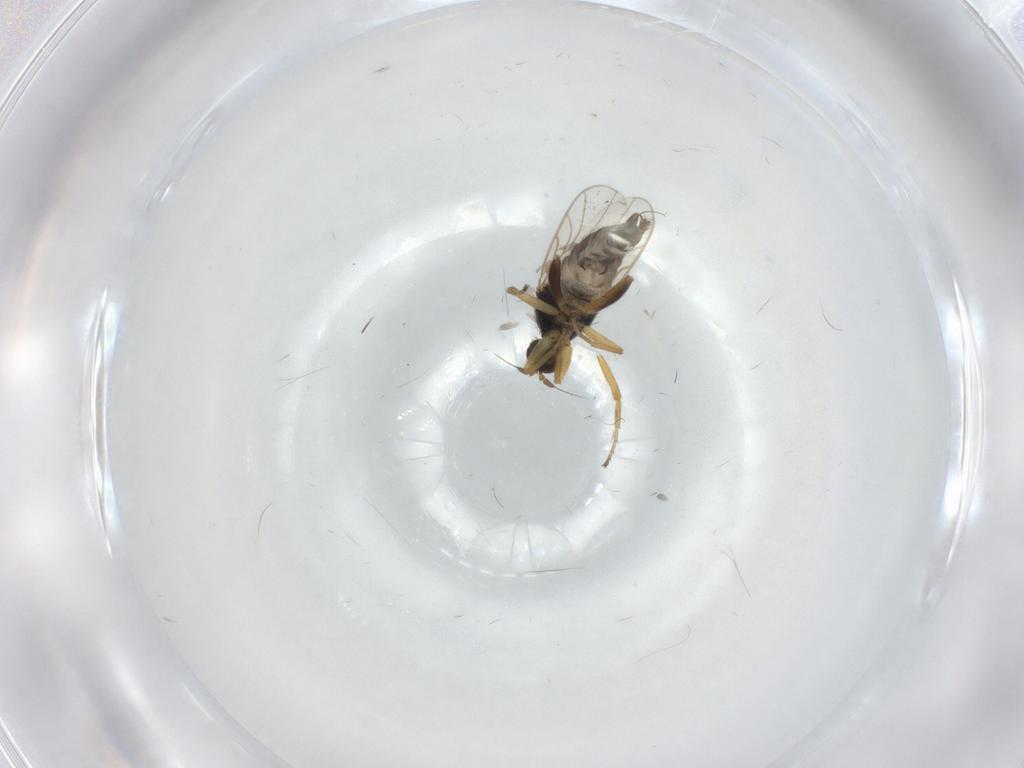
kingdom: Animalia
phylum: Arthropoda
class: Insecta
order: Diptera
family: Hybotidae
